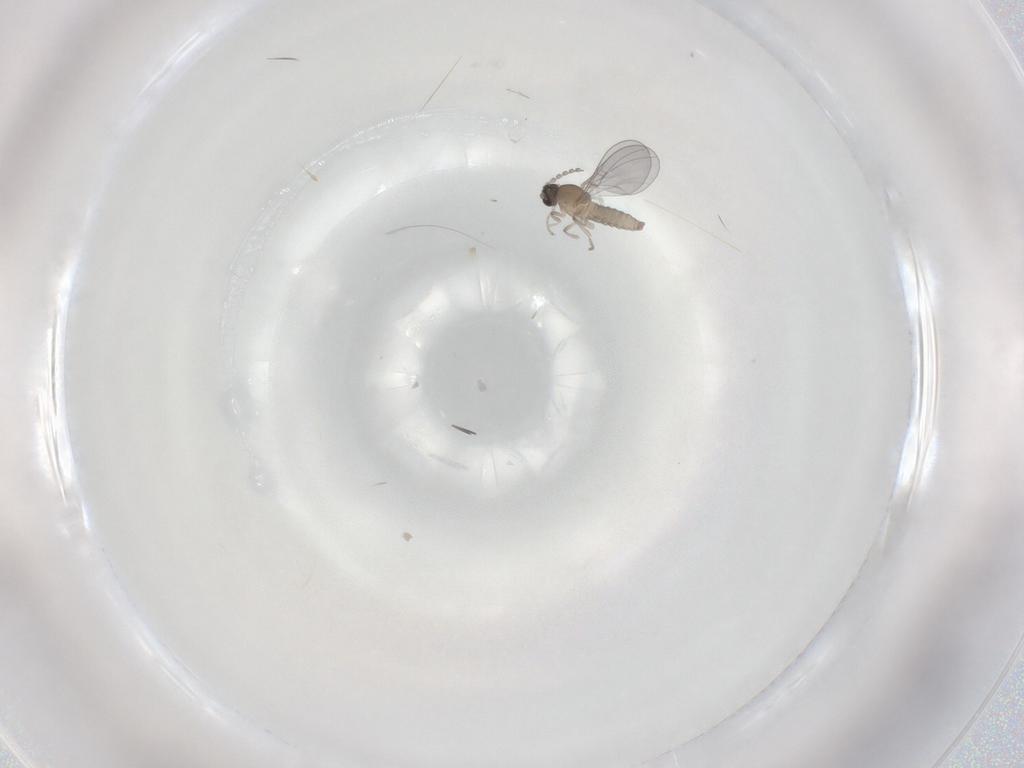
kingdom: Animalia
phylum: Arthropoda
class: Insecta
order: Diptera
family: Cecidomyiidae
